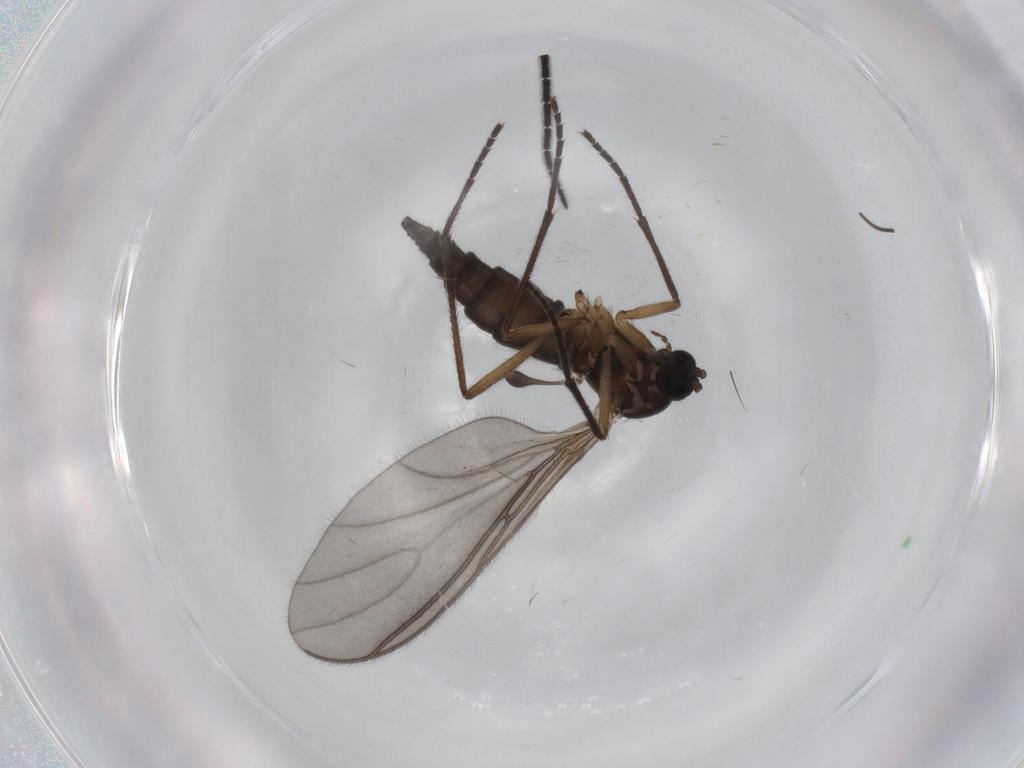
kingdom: Animalia
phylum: Arthropoda
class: Insecta
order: Diptera
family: Sciaridae
